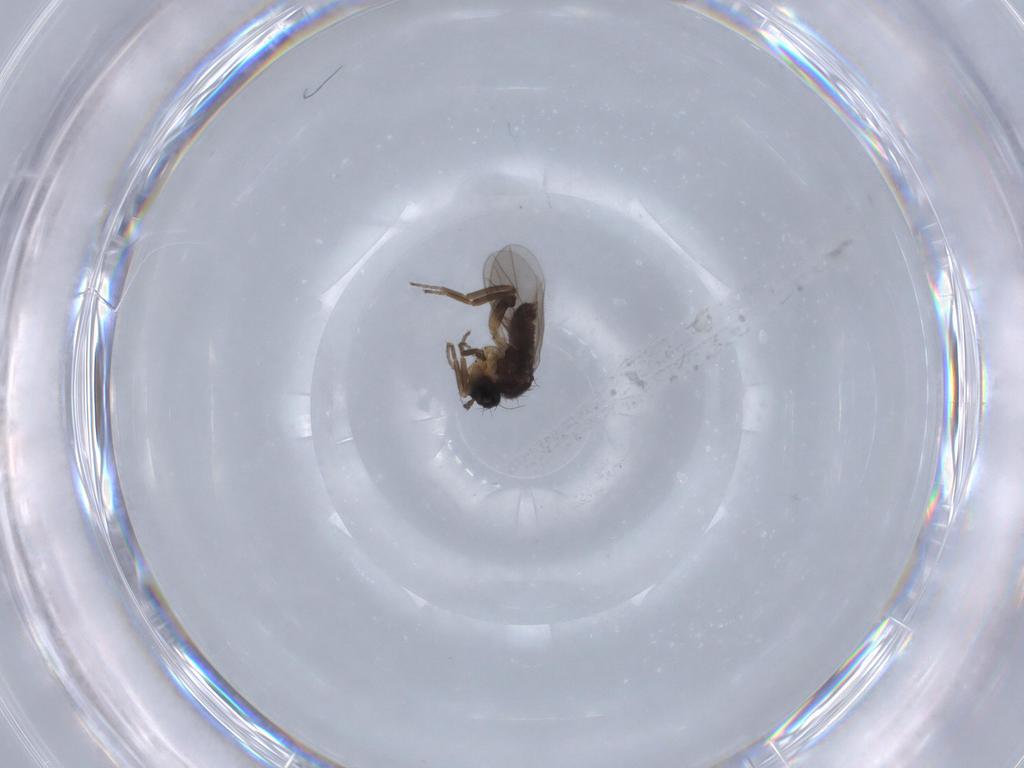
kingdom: Animalia
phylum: Arthropoda
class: Insecta
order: Diptera
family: Hybotidae
